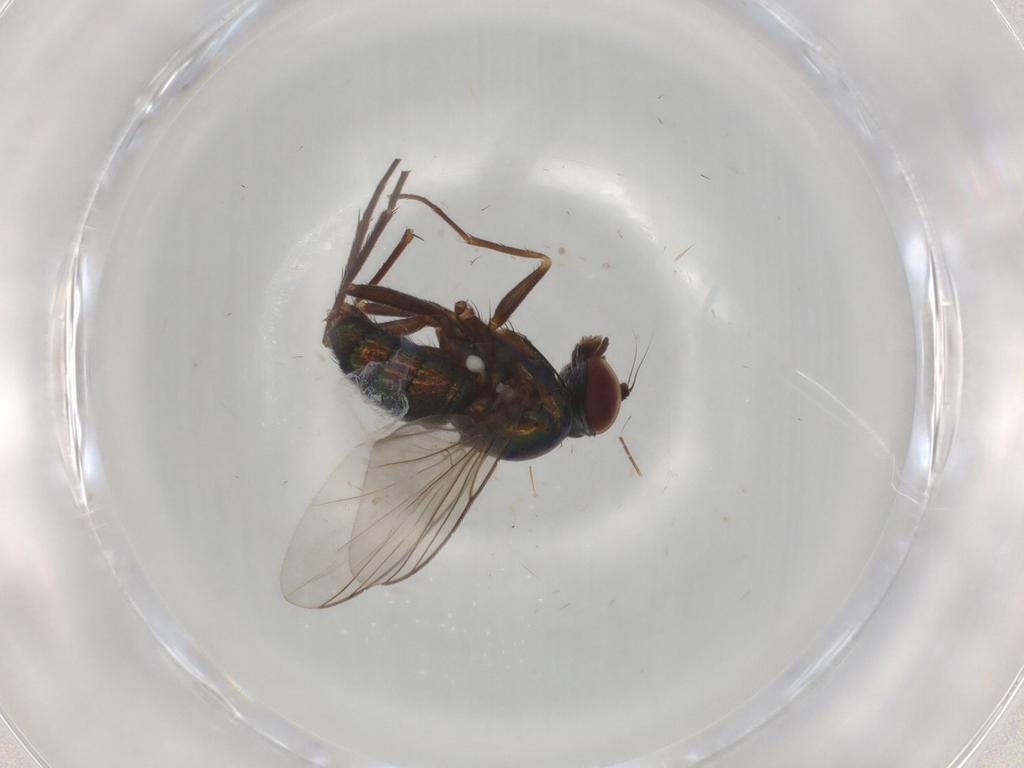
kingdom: Animalia
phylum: Arthropoda
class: Insecta
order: Diptera
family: Dolichopodidae
